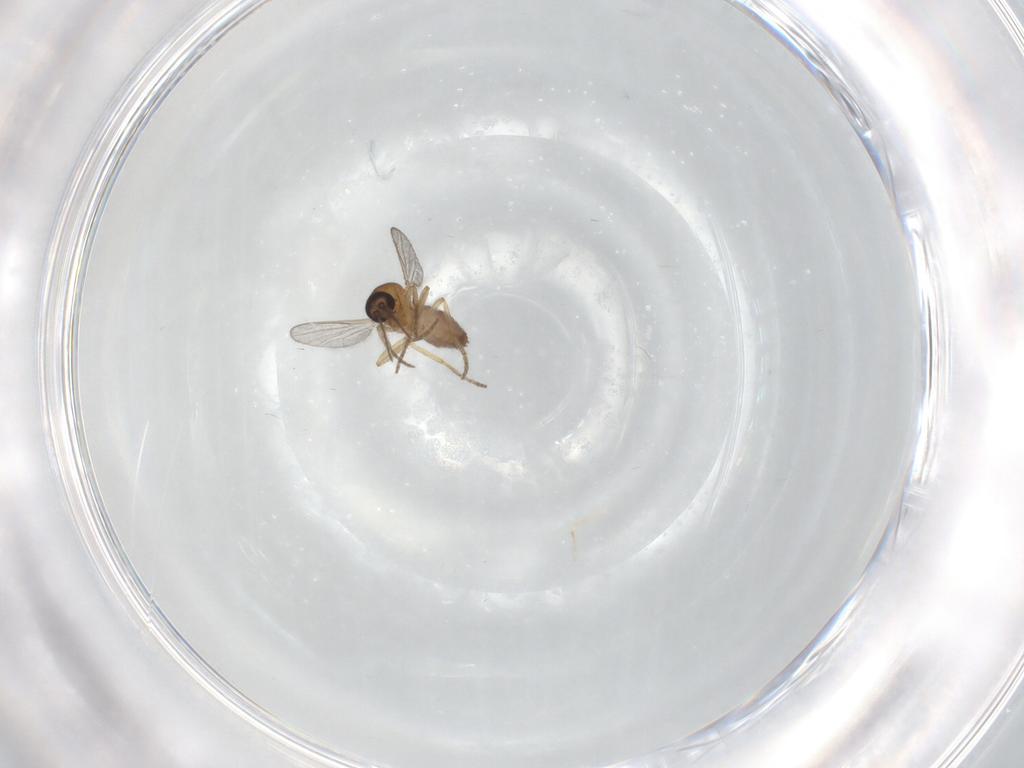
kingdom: Animalia
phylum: Arthropoda
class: Insecta
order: Diptera
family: Ceratopogonidae
